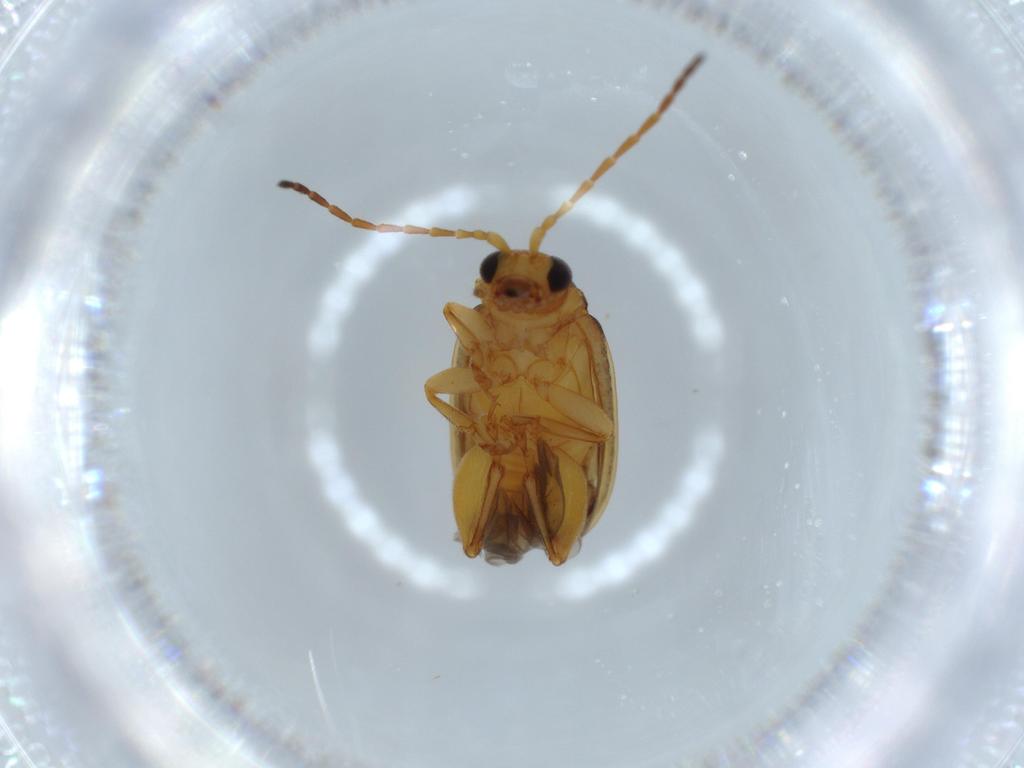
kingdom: Animalia
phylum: Arthropoda
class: Insecta
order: Coleoptera
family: Chrysomelidae
